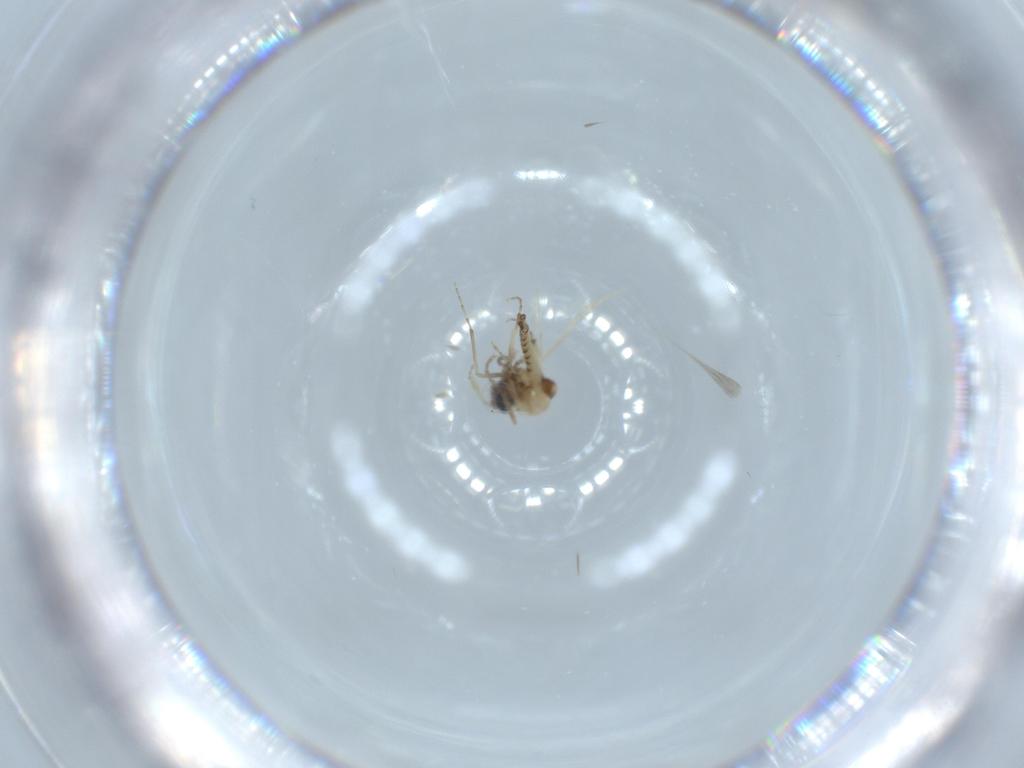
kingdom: Animalia
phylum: Arthropoda
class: Insecta
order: Diptera
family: Ceratopogonidae
